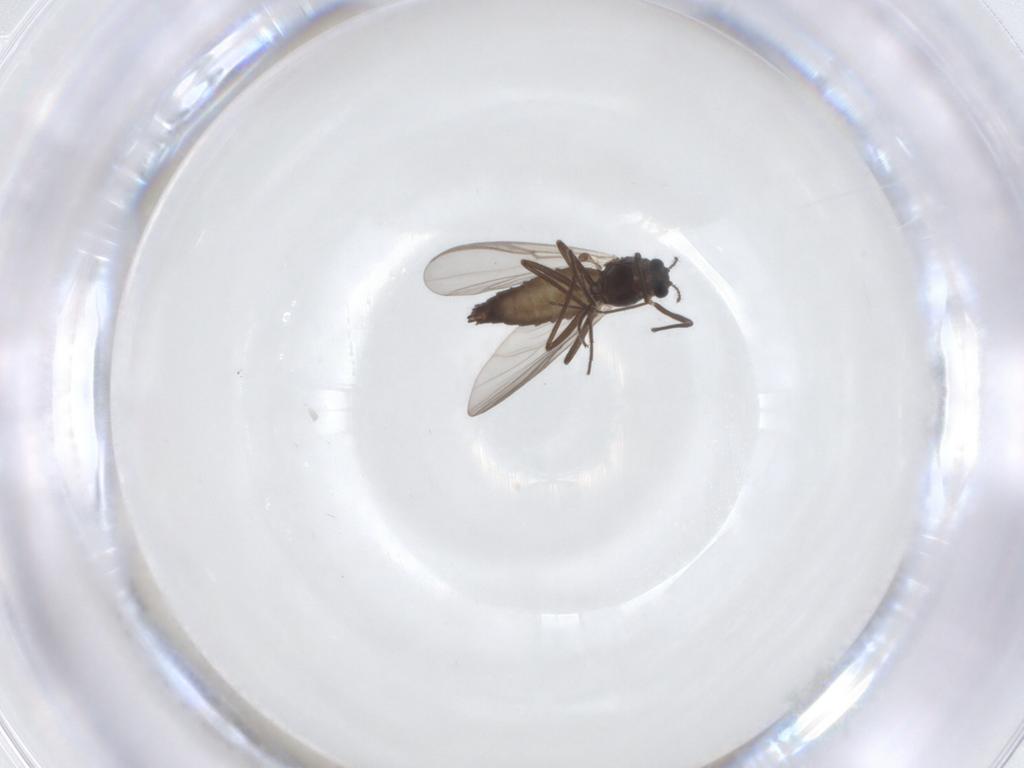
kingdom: Animalia
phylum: Arthropoda
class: Insecta
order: Diptera
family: Chironomidae
